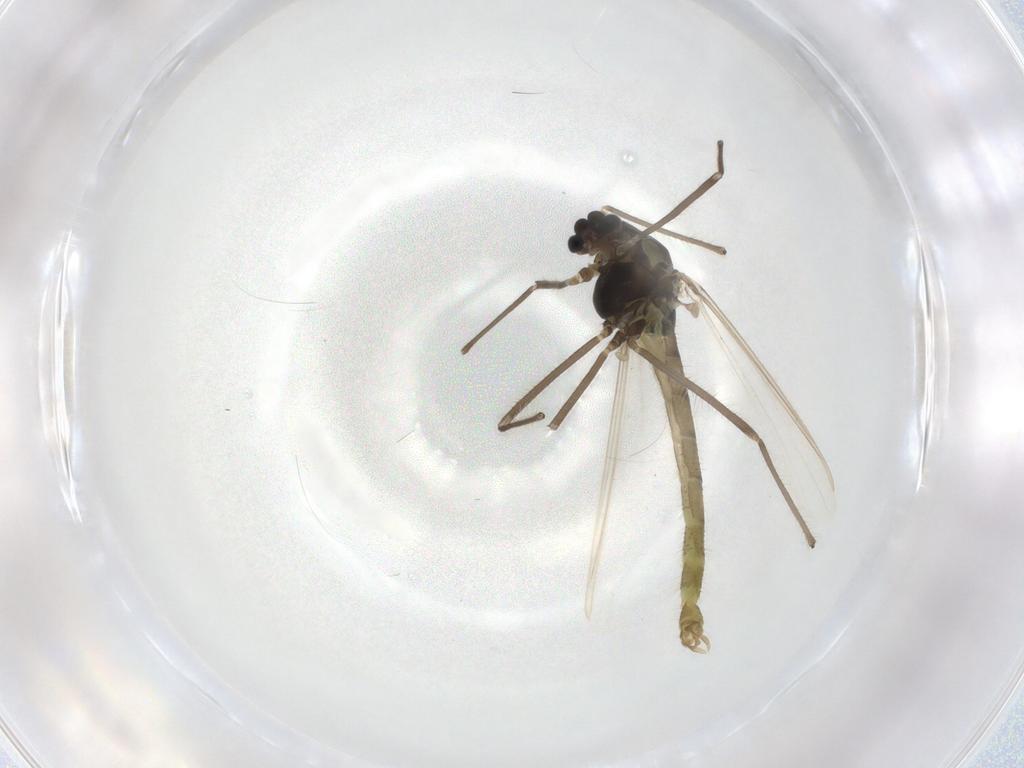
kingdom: Animalia
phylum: Arthropoda
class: Insecta
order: Diptera
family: Chironomidae
